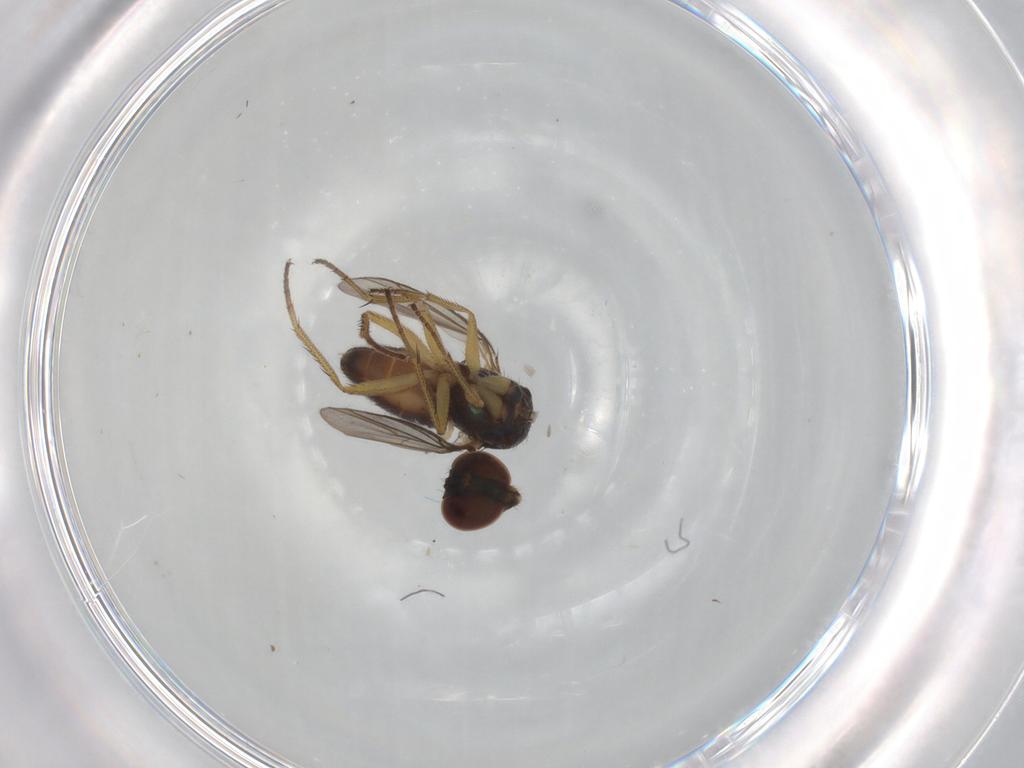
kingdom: Animalia
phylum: Arthropoda
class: Insecta
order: Diptera
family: Dolichopodidae
